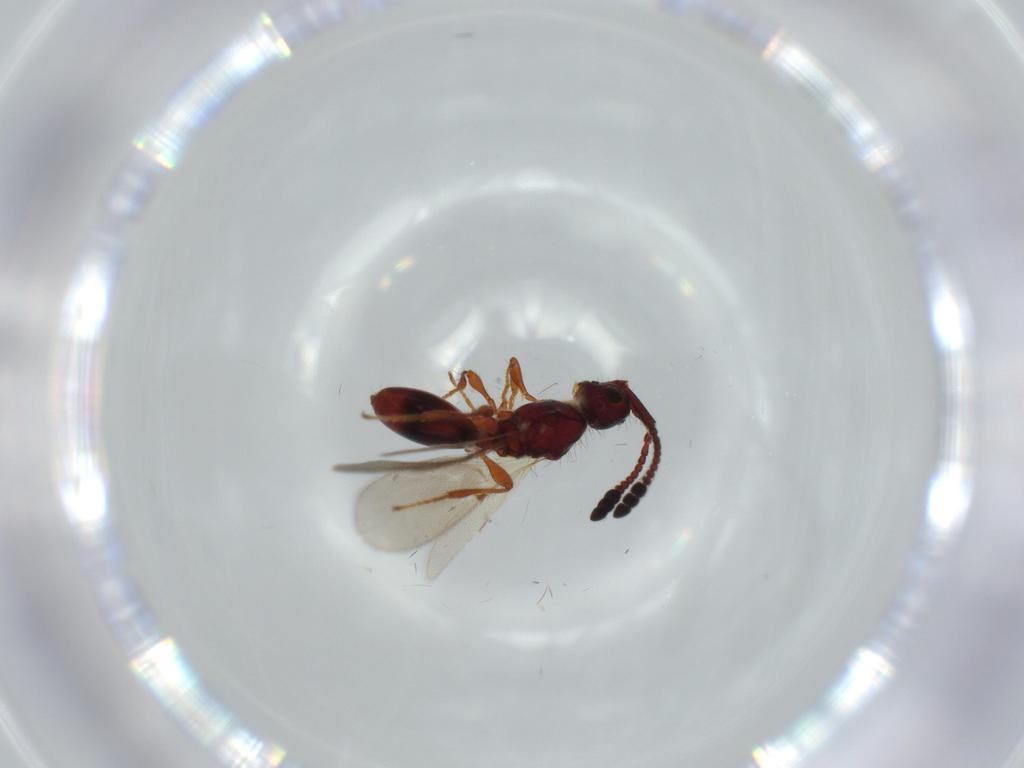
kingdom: Animalia
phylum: Arthropoda
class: Insecta
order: Hymenoptera
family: Diapriidae
